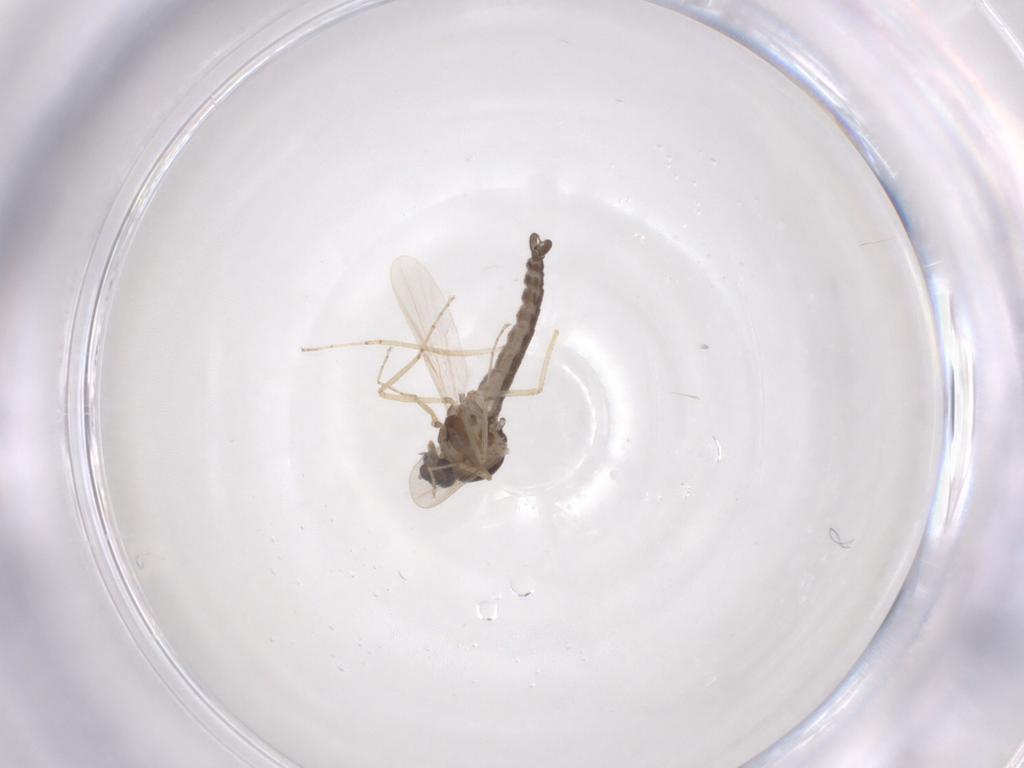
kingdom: Animalia
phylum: Arthropoda
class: Insecta
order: Diptera
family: Ceratopogonidae
